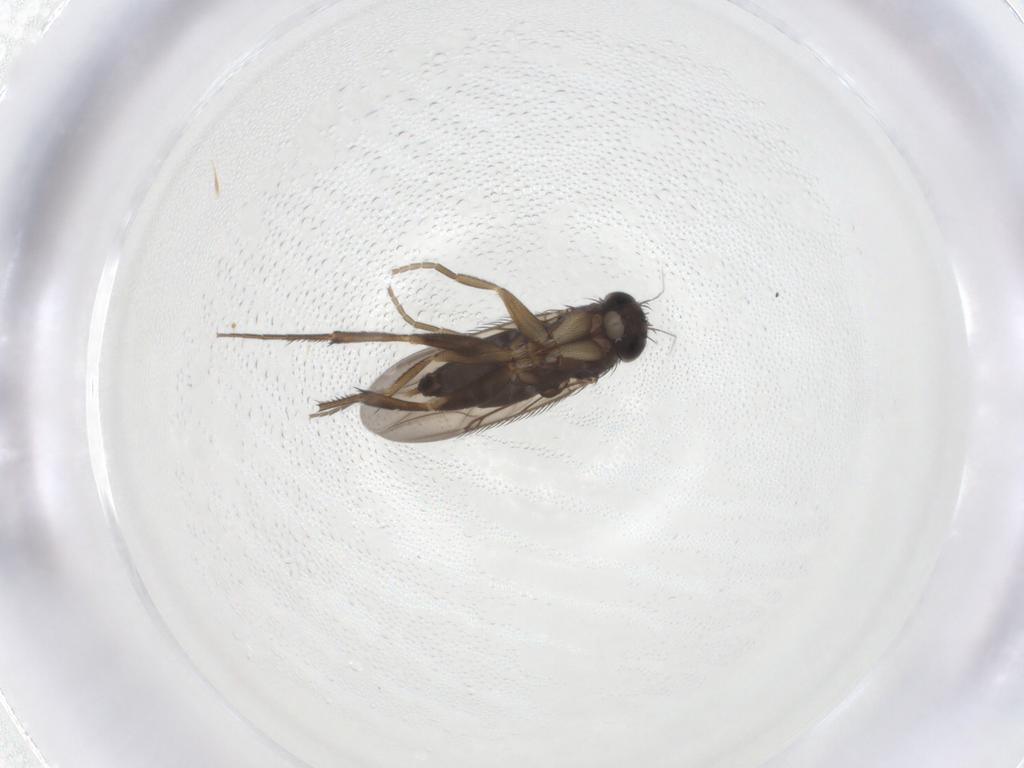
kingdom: Animalia
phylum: Arthropoda
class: Insecta
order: Diptera
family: Phoridae
